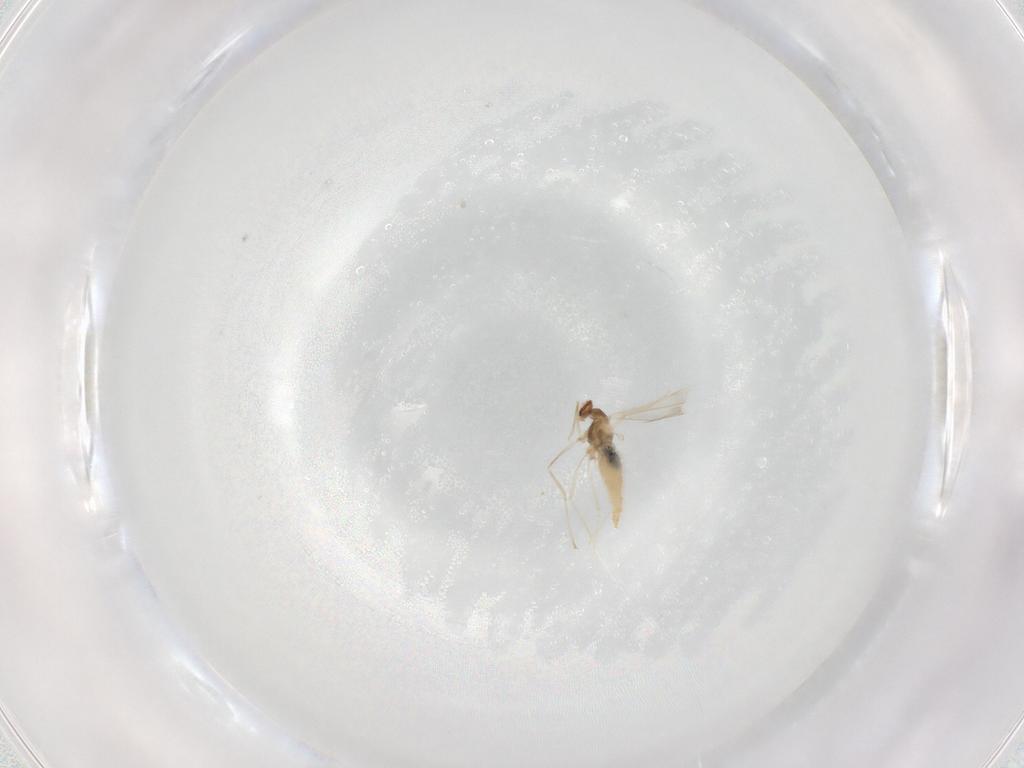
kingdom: Animalia
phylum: Arthropoda
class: Insecta
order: Diptera
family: Cecidomyiidae
